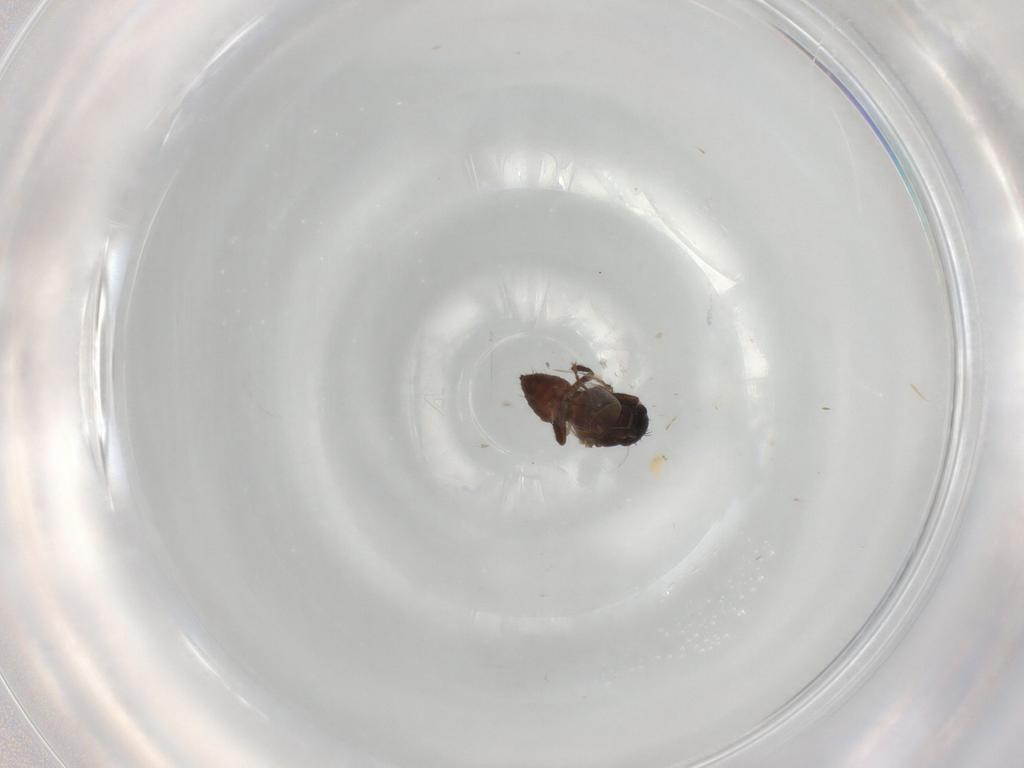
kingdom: Animalia
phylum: Arthropoda
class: Insecta
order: Diptera
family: Sphaeroceridae
